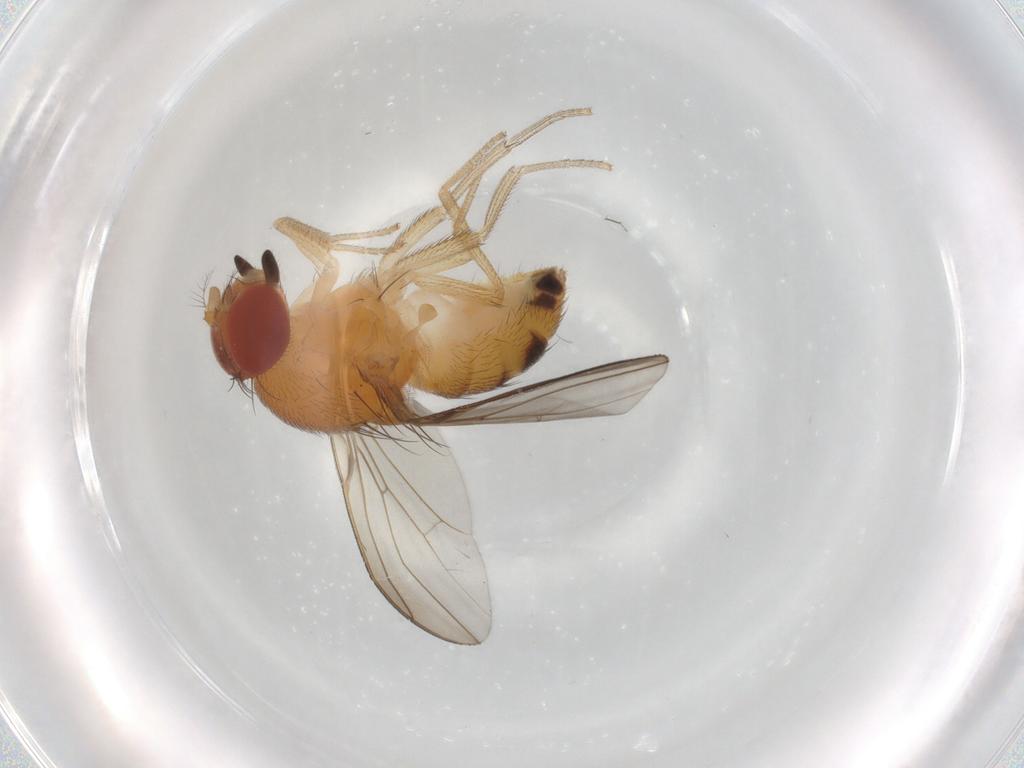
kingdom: Animalia
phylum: Arthropoda
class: Insecta
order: Diptera
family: Drosophilidae
